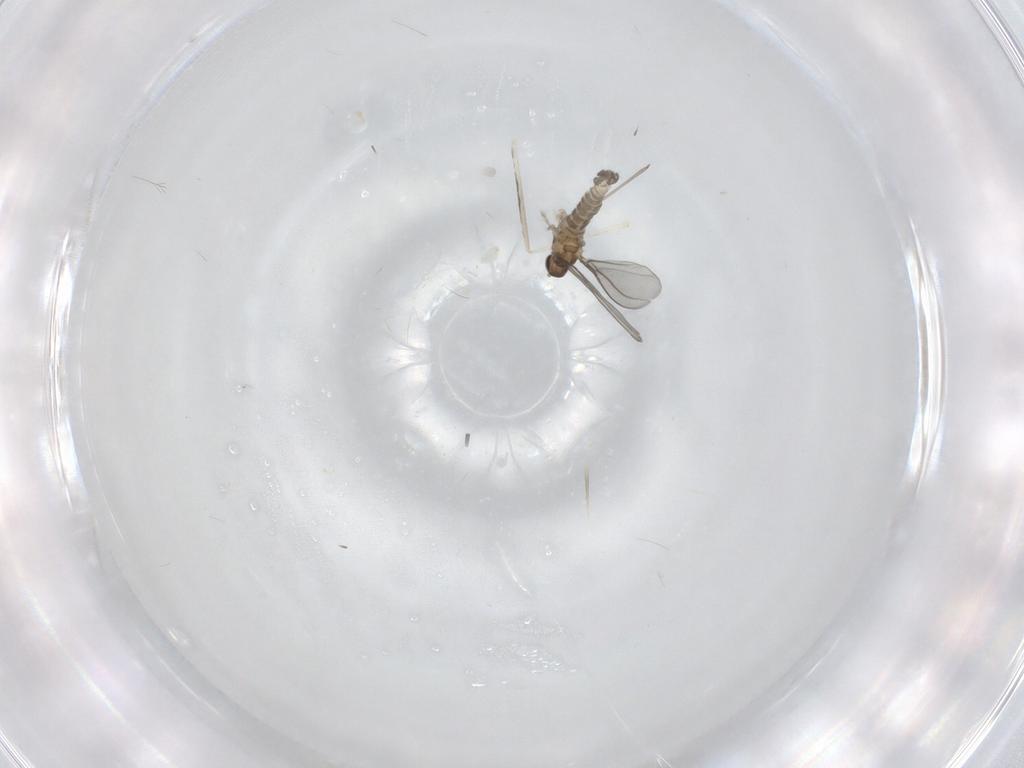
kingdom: Animalia
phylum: Arthropoda
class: Insecta
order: Diptera
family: Cecidomyiidae
